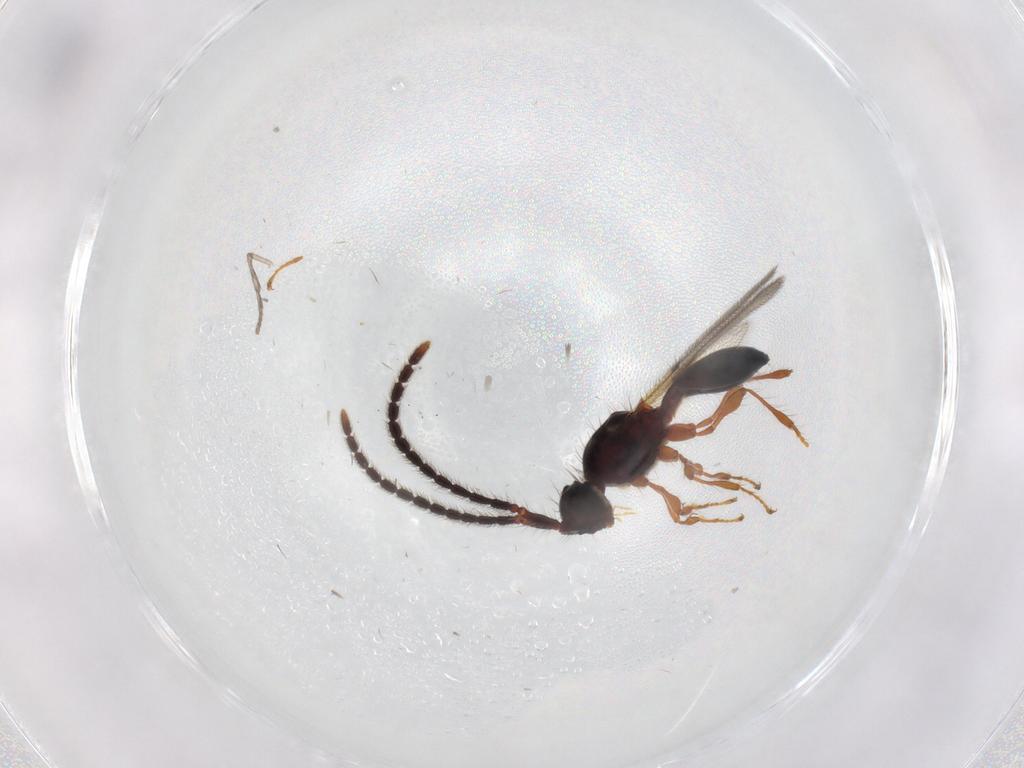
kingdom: Animalia
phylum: Arthropoda
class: Insecta
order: Hymenoptera
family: Diapriidae
